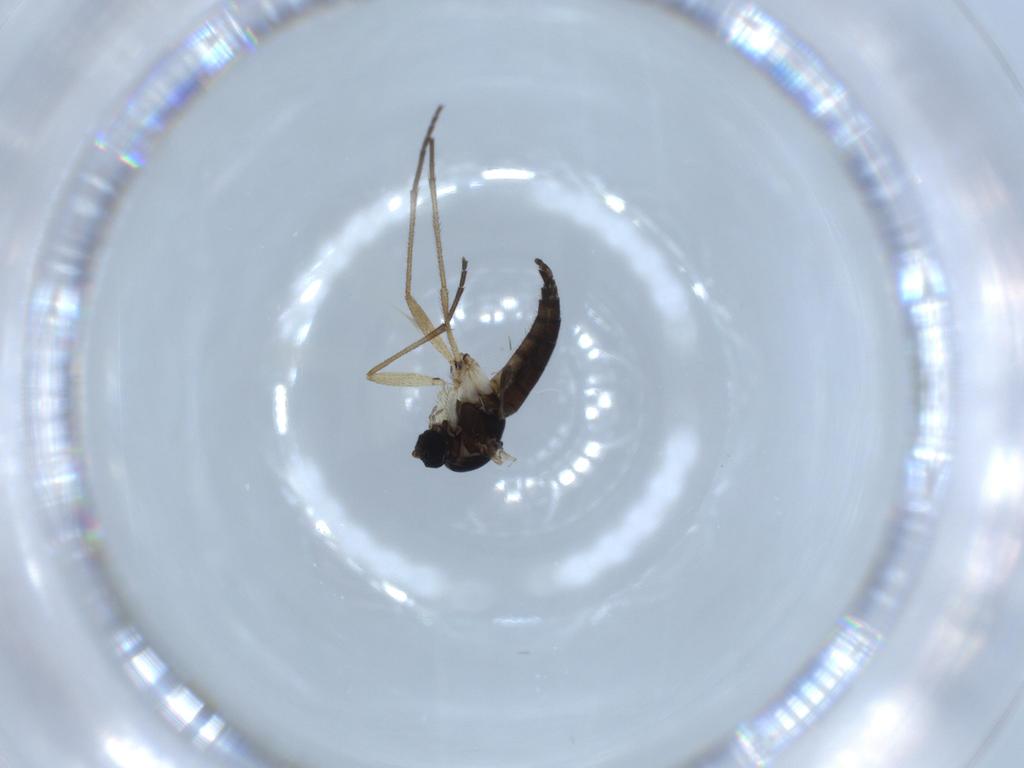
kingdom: Animalia
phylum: Arthropoda
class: Insecta
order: Diptera
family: Sciaridae
